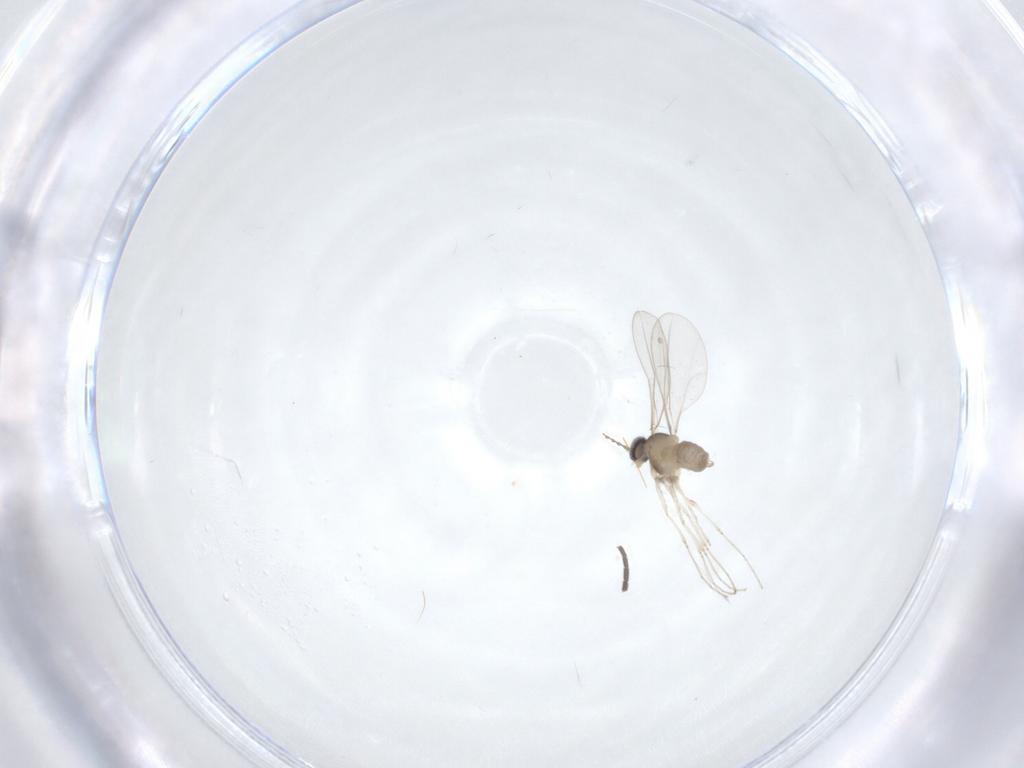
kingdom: Animalia
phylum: Arthropoda
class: Insecta
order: Diptera
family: Sciaridae
